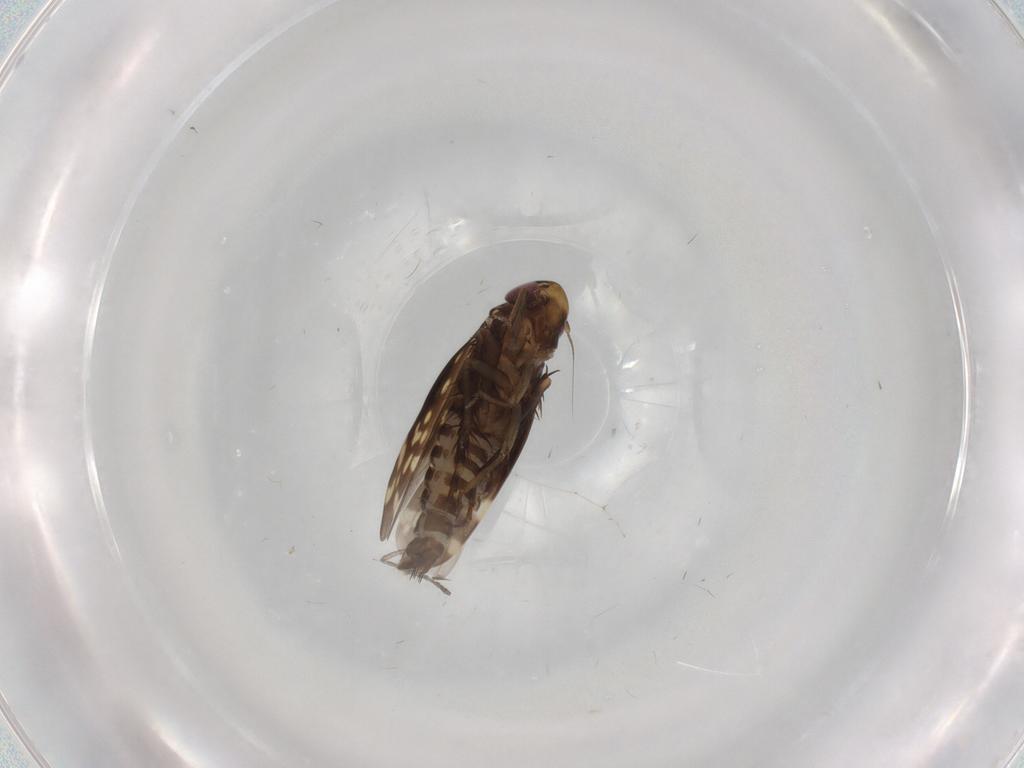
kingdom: Animalia
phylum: Arthropoda
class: Insecta
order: Hemiptera
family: Cicadellidae
